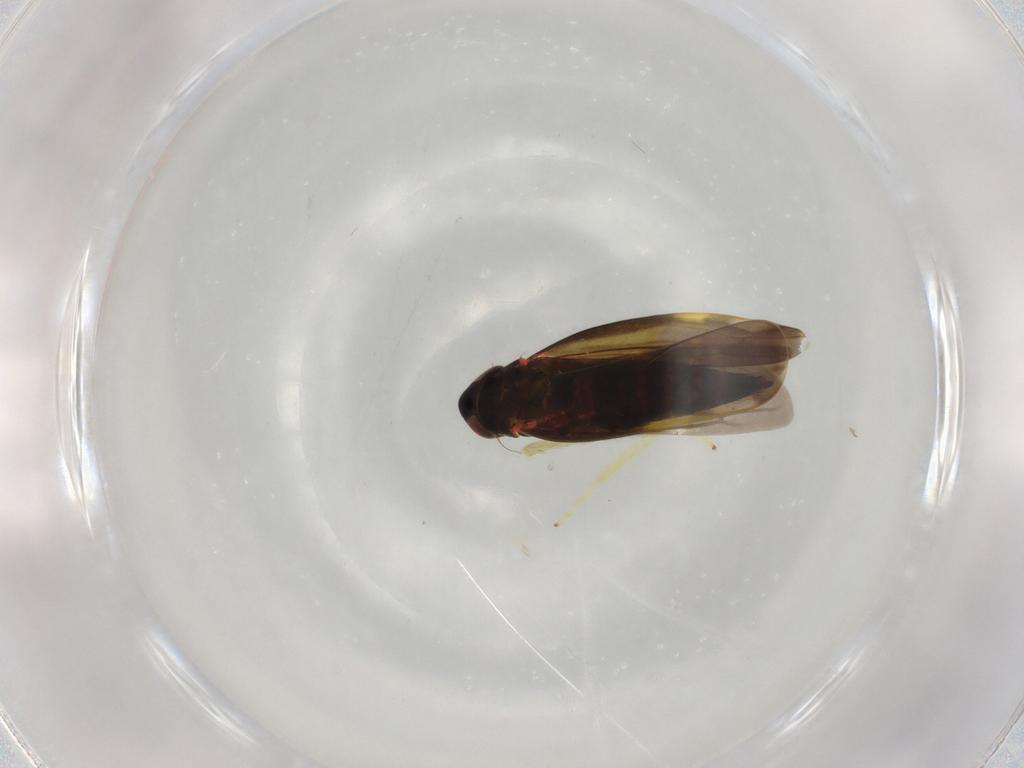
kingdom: Animalia
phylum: Arthropoda
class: Insecta
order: Hemiptera
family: Cicadellidae
